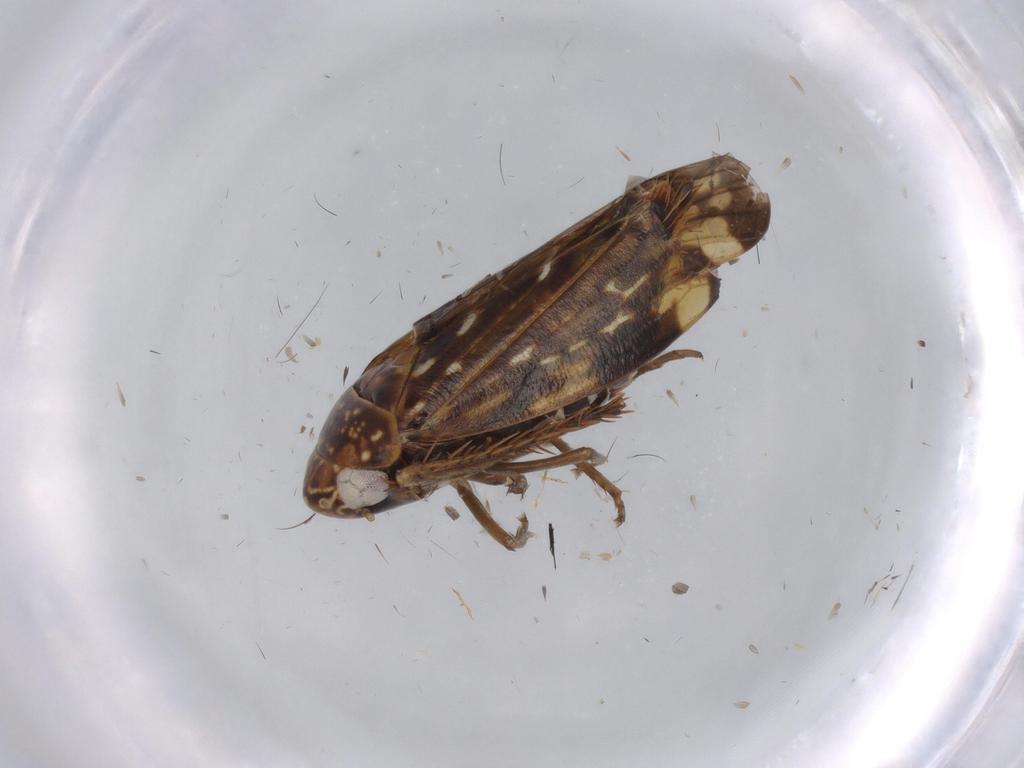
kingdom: Animalia
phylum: Arthropoda
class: Insecta
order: Hemiptera
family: Cicadellidae
